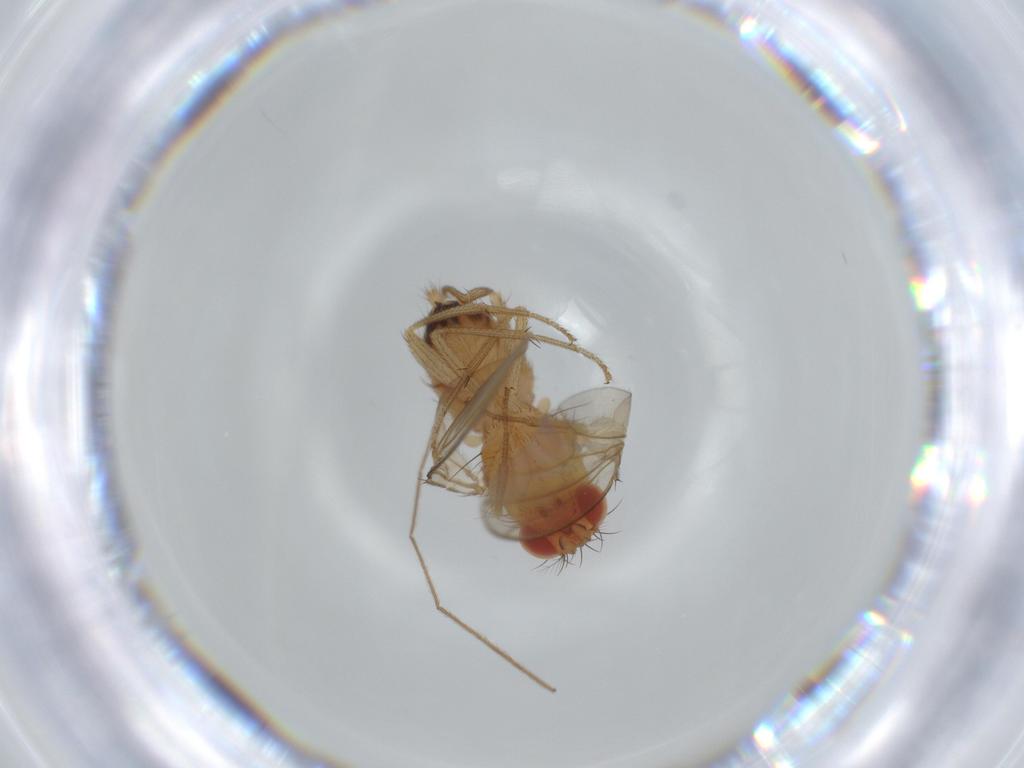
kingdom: Animalia
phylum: Arthropoda
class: Insecta
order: Diptera
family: Drosophilidae
